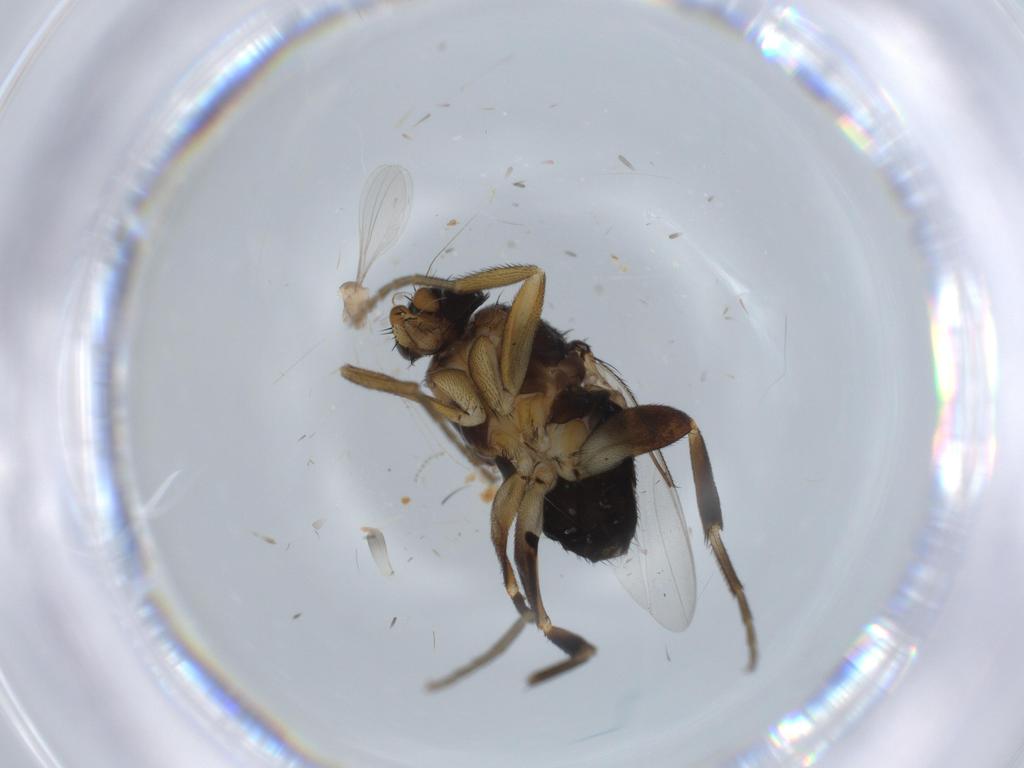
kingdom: Animalia
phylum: Arthropoda
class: Insecta
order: Diptera
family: Phoridae
